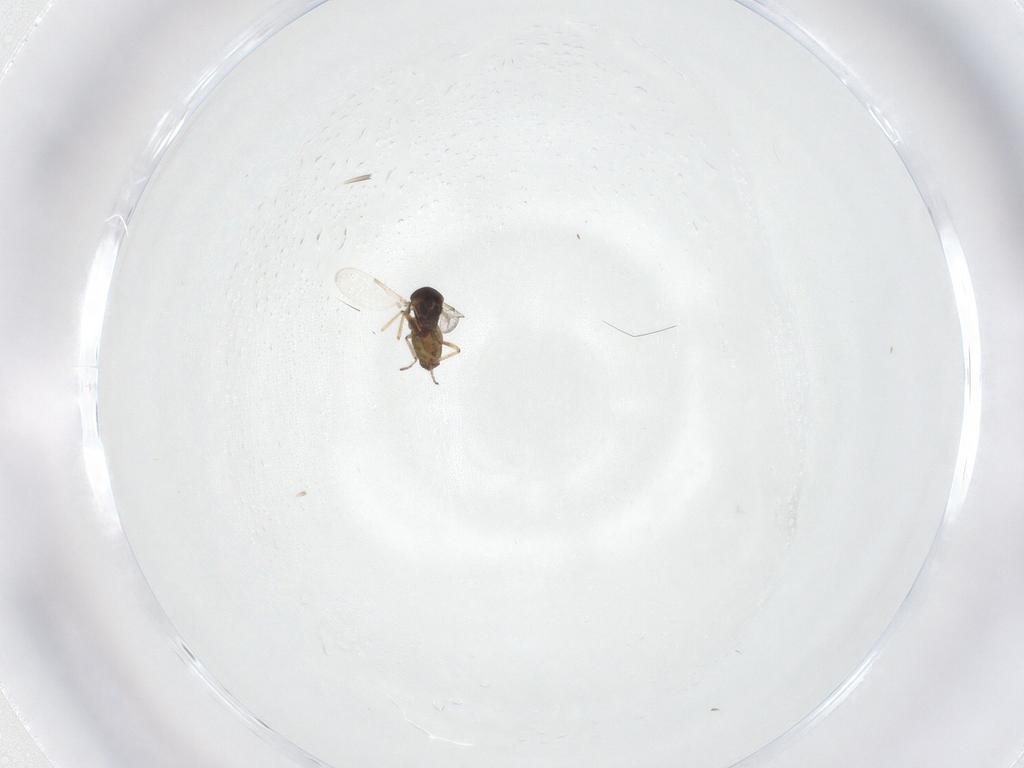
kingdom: Animalia
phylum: Arthropoda
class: Insecta
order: Diptera
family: Ceratopogonidae
